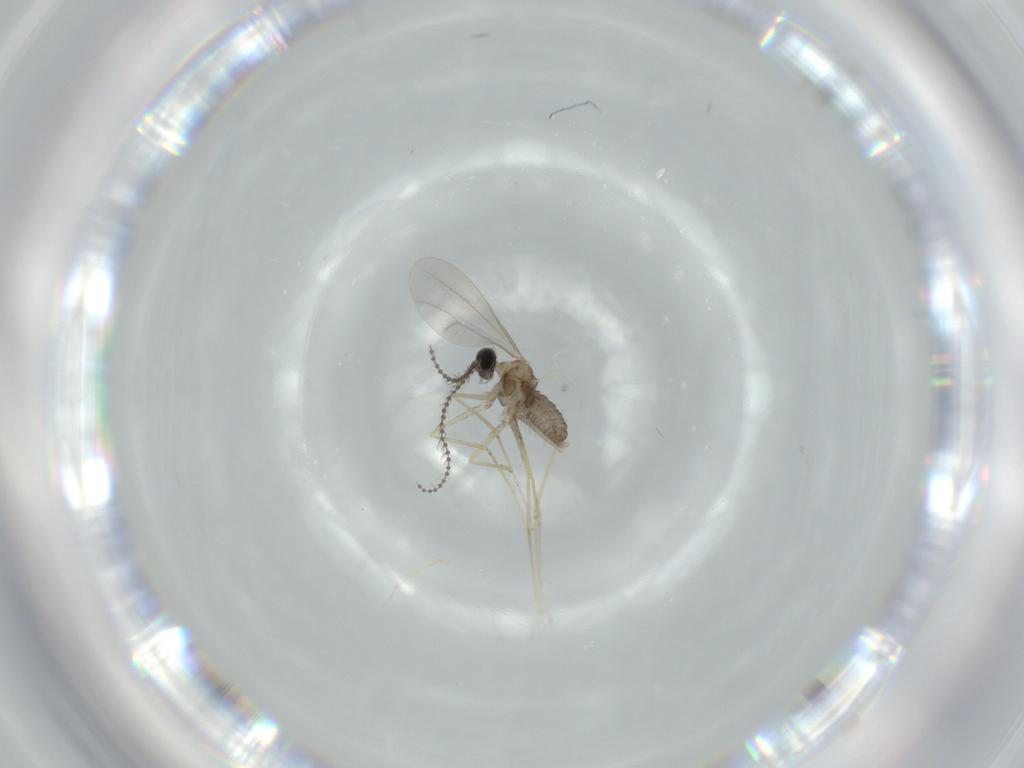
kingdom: Animalia
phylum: Arthropoda
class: Insecta
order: Diptera
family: Cecidomyiidae
